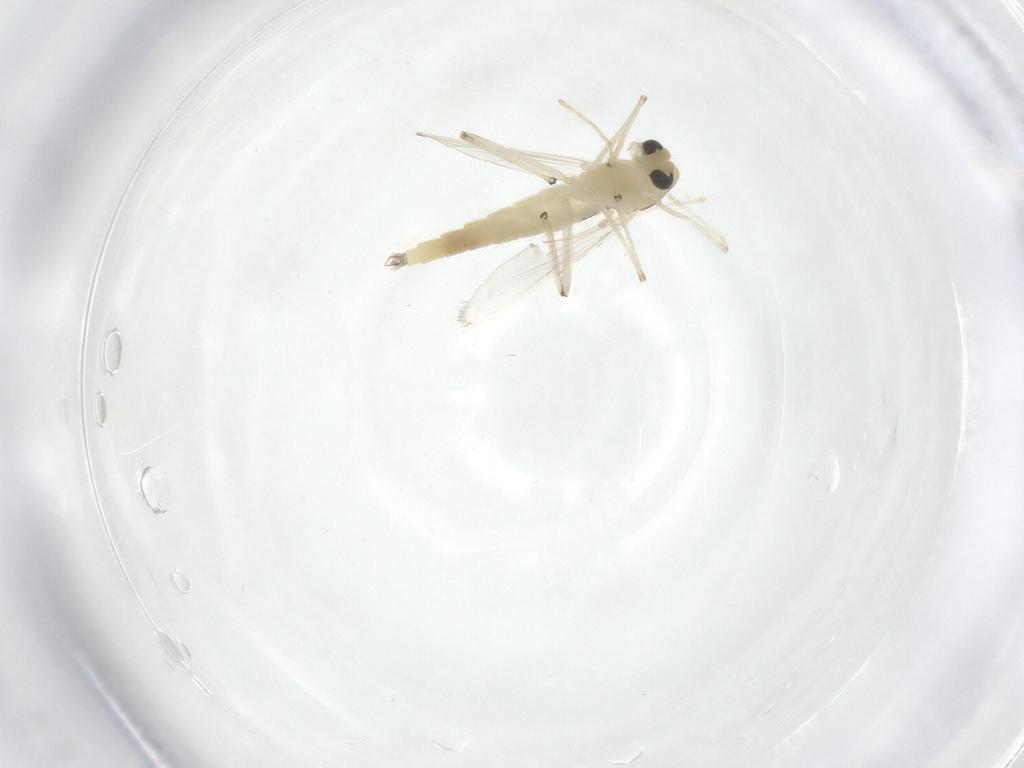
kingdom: Animalia
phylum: Arthropoda
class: Insecta
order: Diptera
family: Chironomidae
